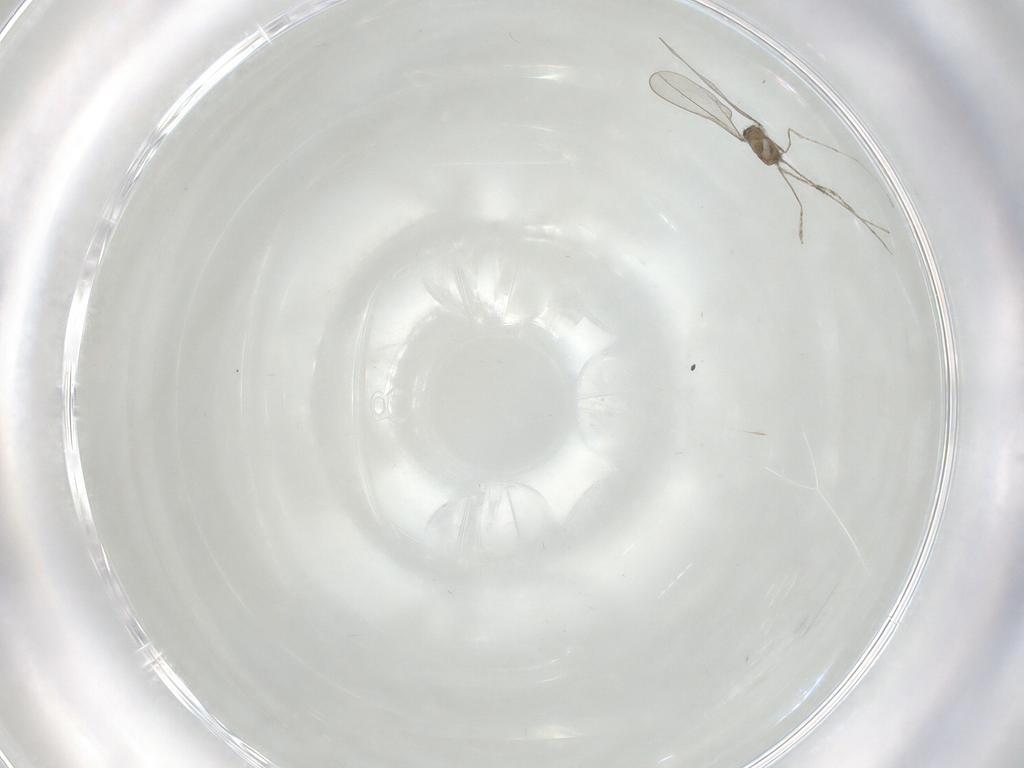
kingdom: Animalia
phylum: Arthropoda
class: Insecta
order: Diptera
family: Cecidomyiidae
